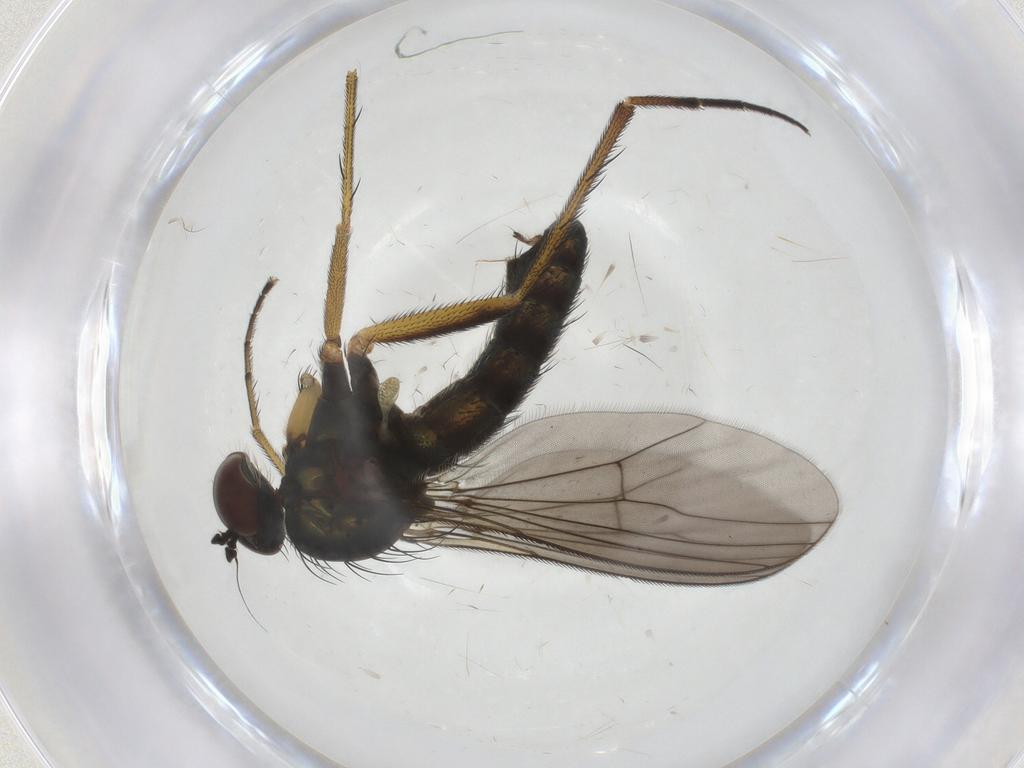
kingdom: Animalia
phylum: Arthropoda
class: Insecta
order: Diptera
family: Dolichopodidae
